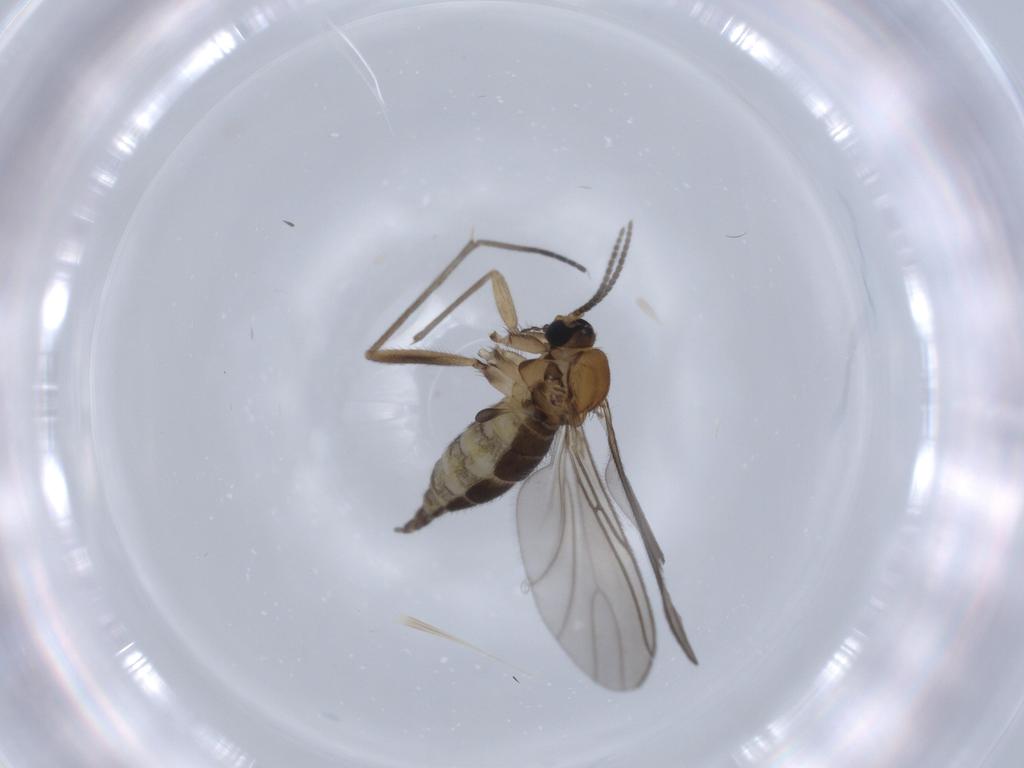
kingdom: Animalia
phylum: Arthropoda
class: Insecta
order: Diptera
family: Sciaridae
